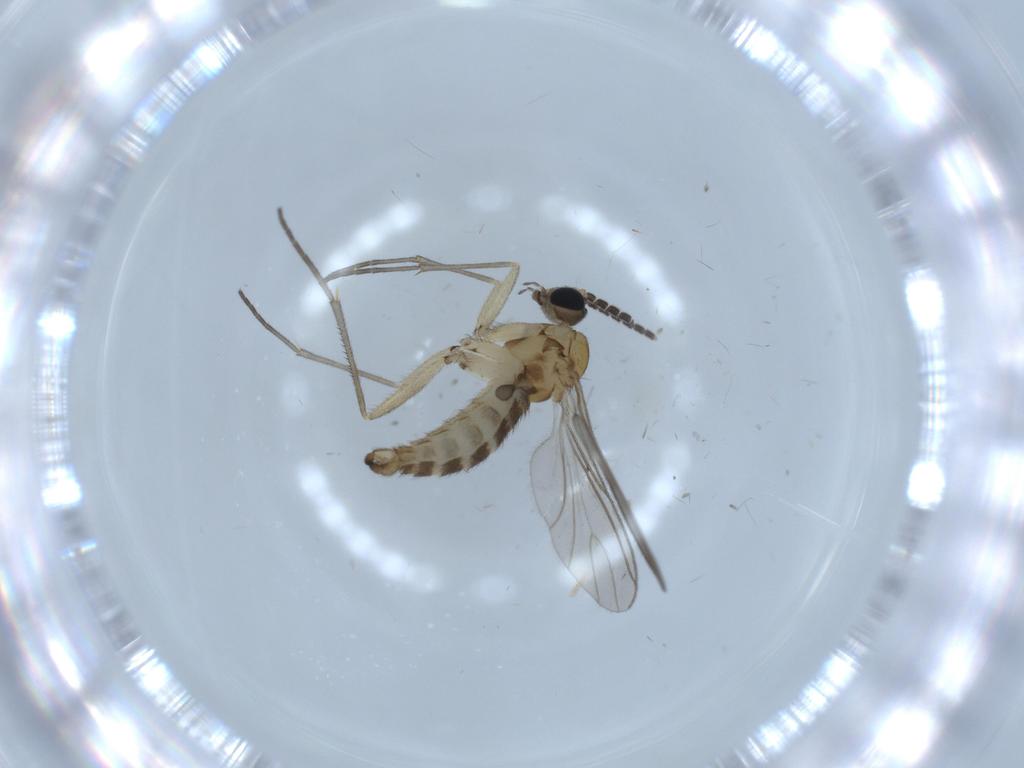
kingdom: Animalia
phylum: Arthropoda
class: Insecta
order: Diptera
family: Sciaridae
